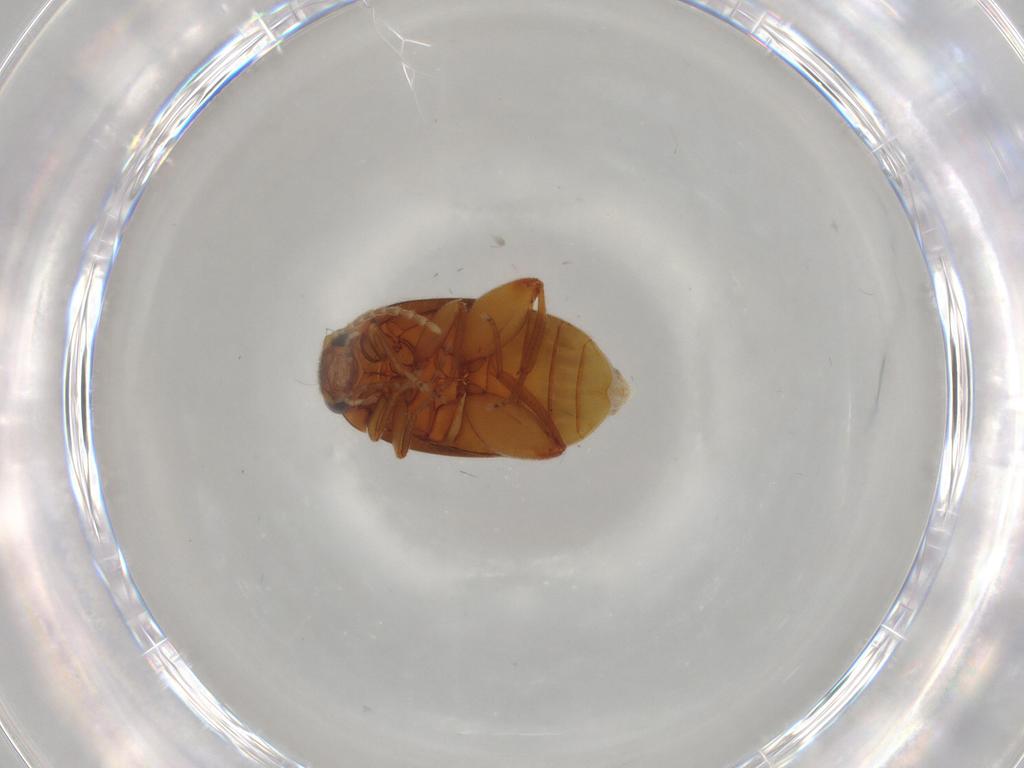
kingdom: Animalia
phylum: Arthropoda
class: Insecta
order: Coleoptera
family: Scirtidae
